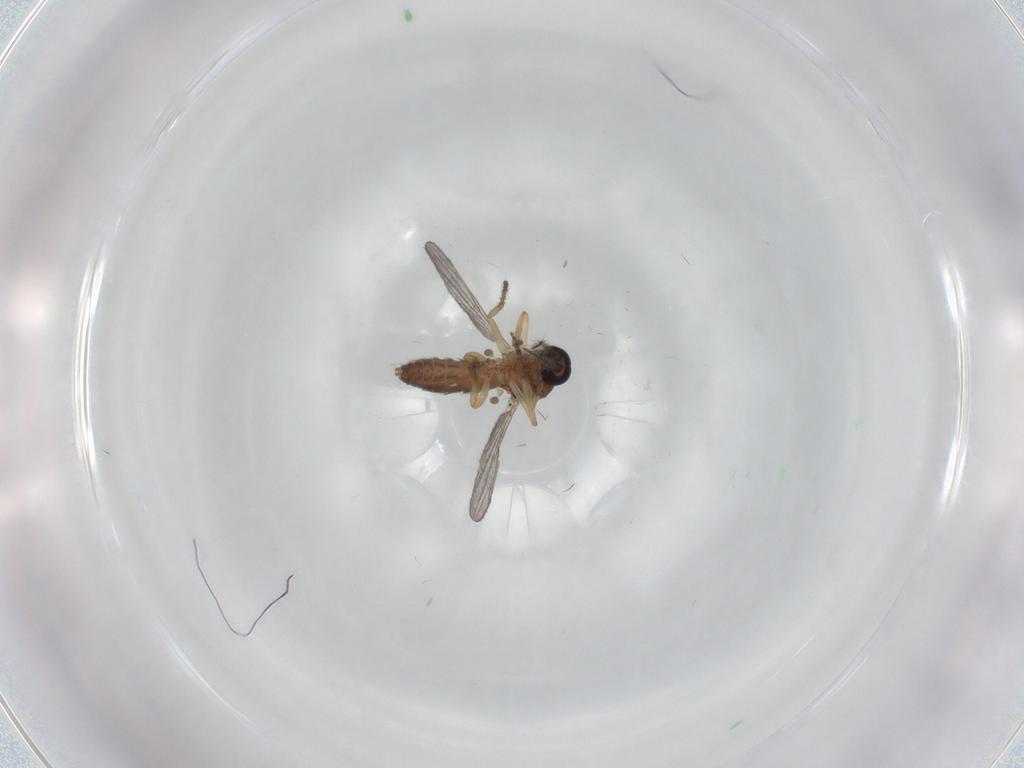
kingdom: Animalia
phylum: Arthropoda
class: Insecta
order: Diptera
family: Ceratopogonidae
